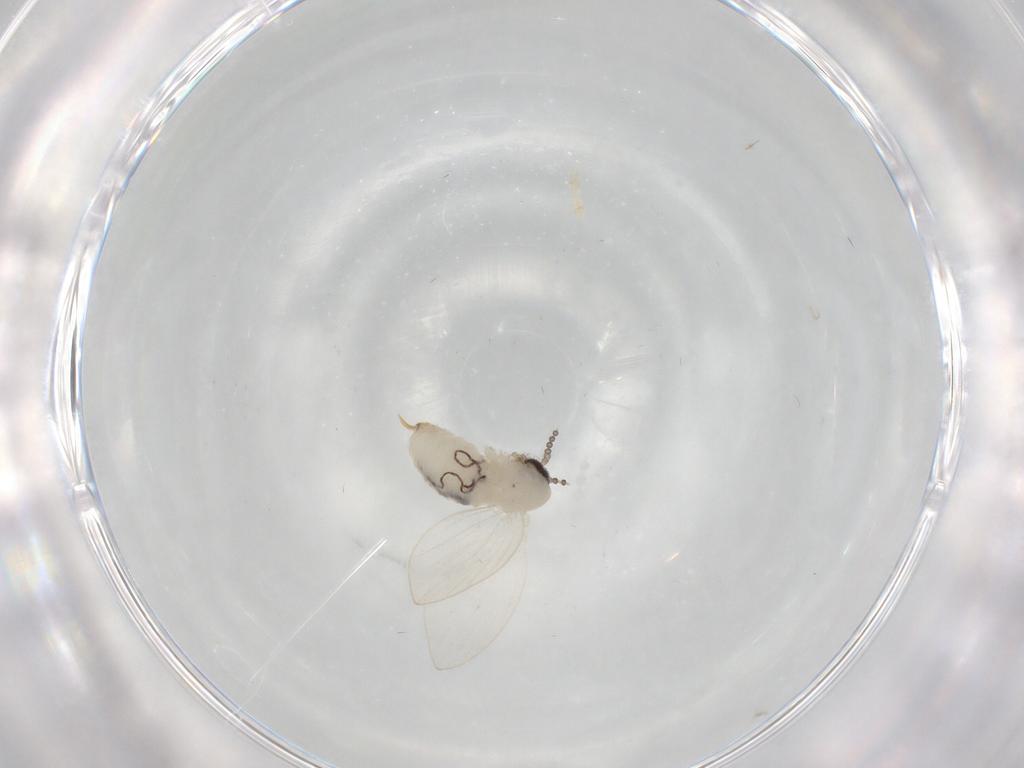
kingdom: Animalia
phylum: Arthropoda
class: Insecta
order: Diptera
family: Psychodidae
